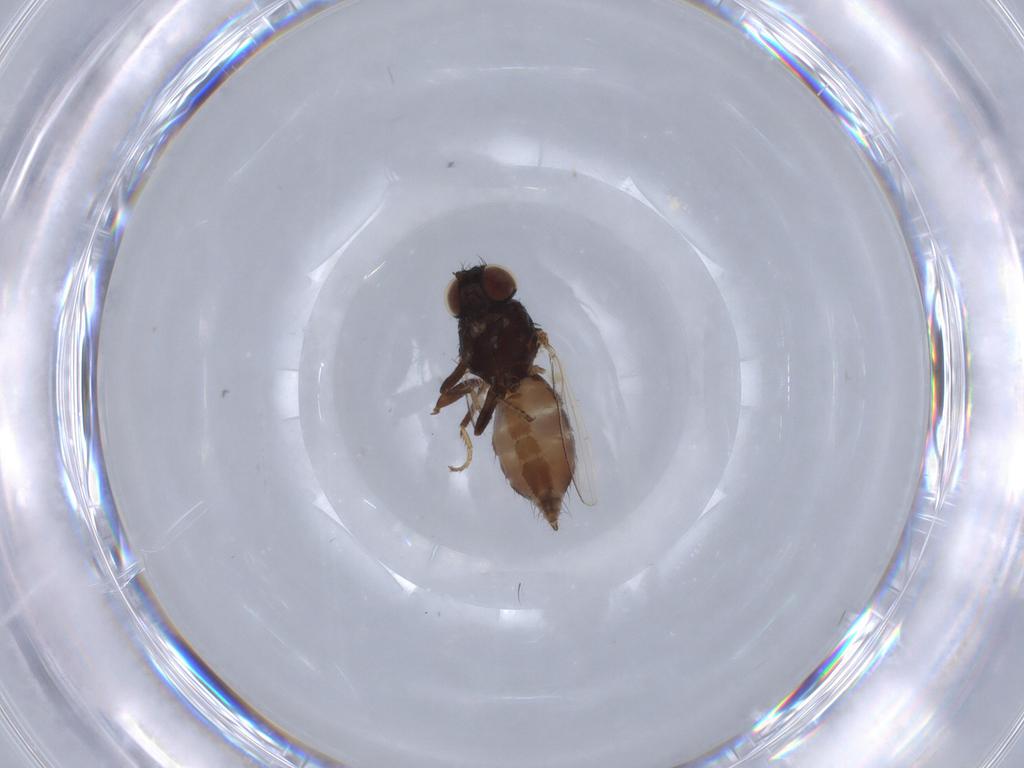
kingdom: Animalia
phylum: Arthropoda
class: Insecta
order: Diptera
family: Milichiidae
